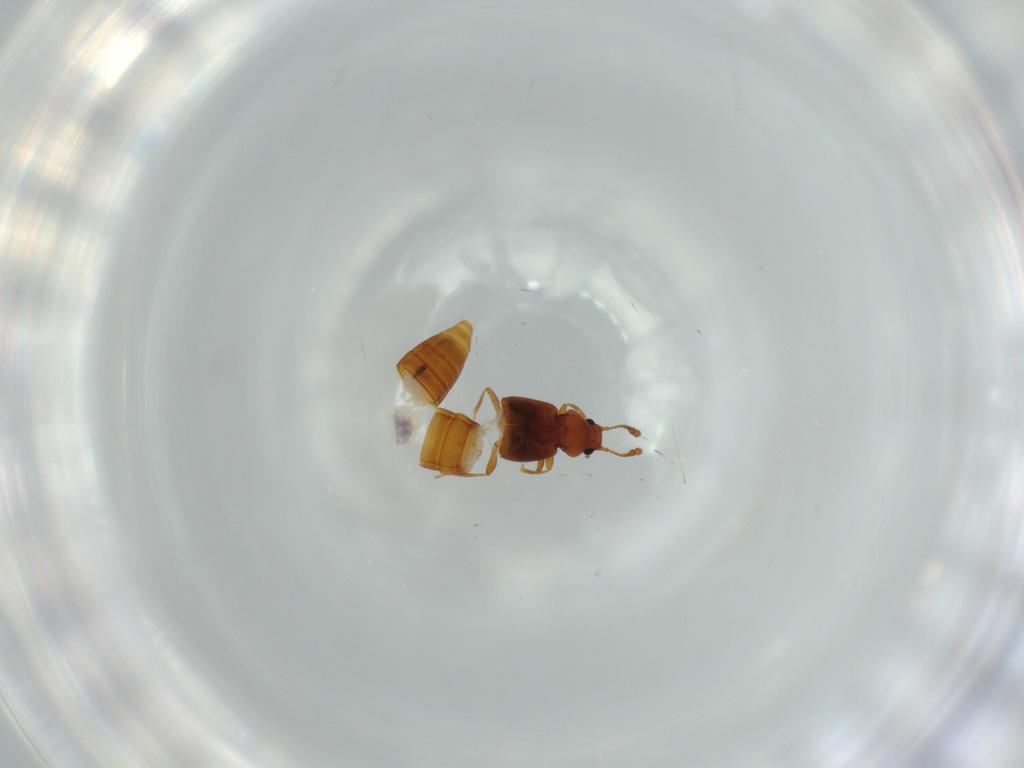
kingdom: Animalia
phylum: Arthropoda
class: Insecta
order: Coleoptera
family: Staphylinidae
